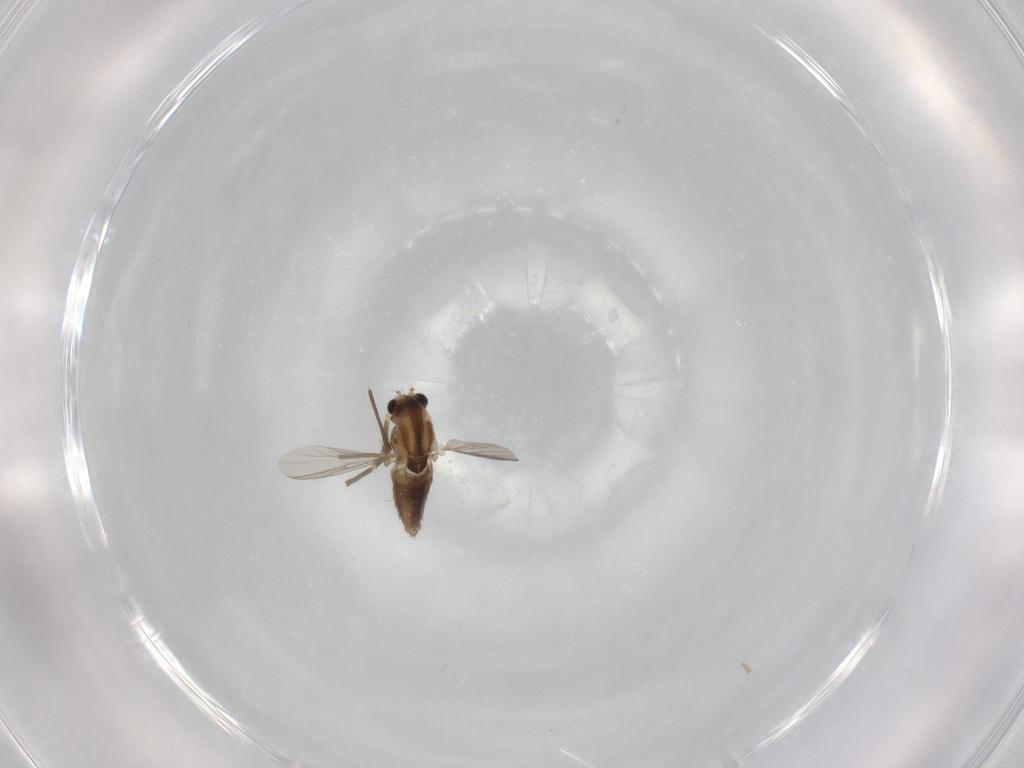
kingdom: Animalia
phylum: Arthropoda
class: Insecta
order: Diptera
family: Chironomidae
